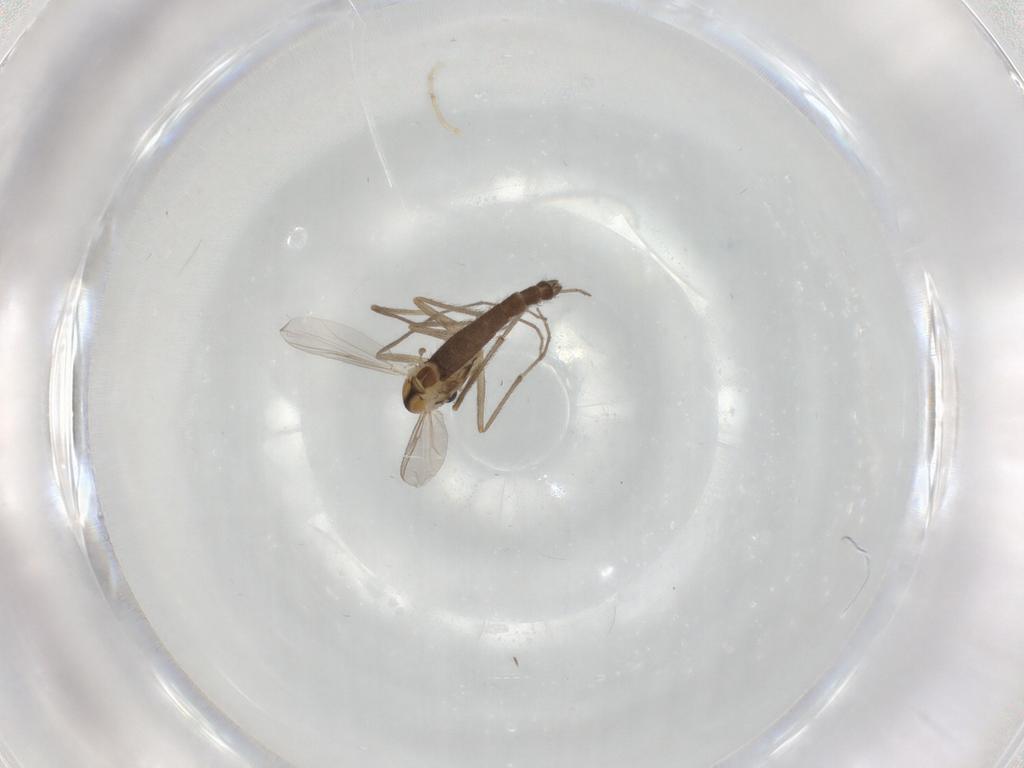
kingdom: Animalia
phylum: Arthropoda
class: Insecta
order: Diptera
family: Chironomidae
